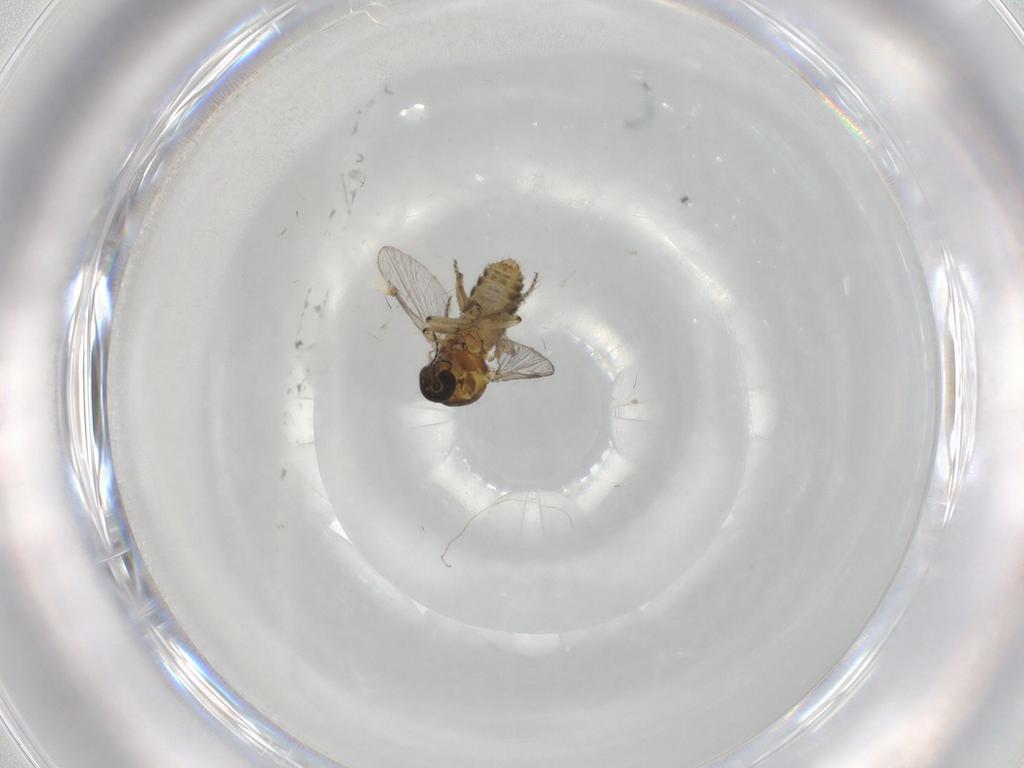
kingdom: Animalia
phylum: Arthropoda
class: Insecta
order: Diptera
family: Ceratopogonidae
